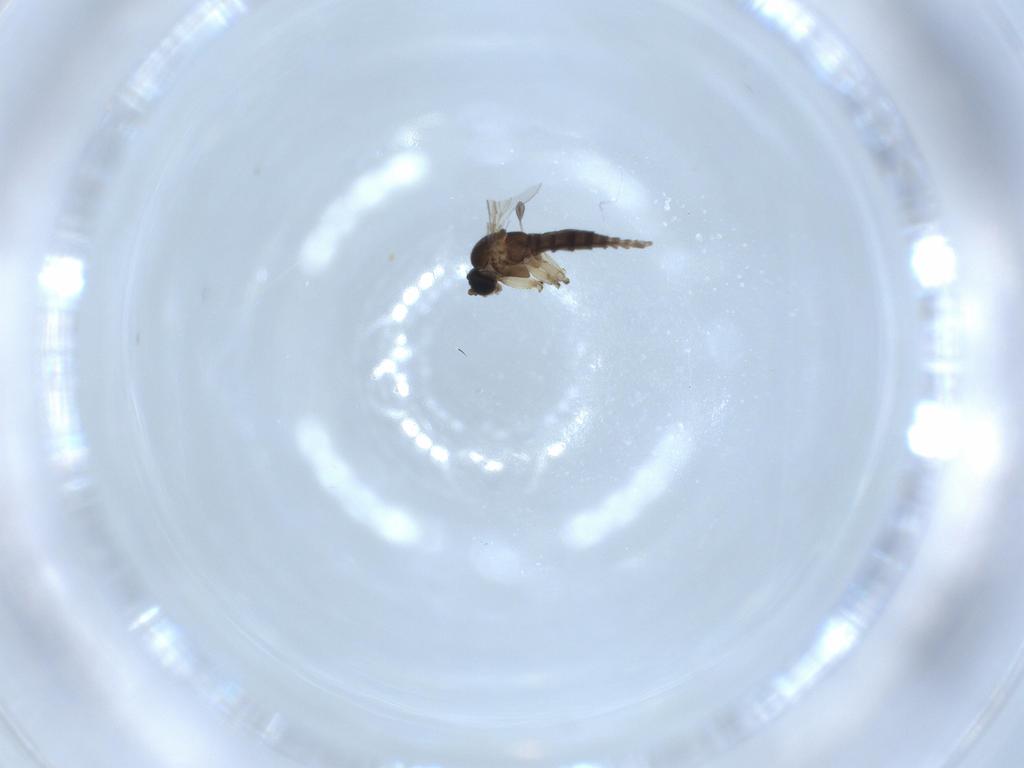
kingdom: Animalia
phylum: Arthropoda
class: Insecta
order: Diptera
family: Sciaridae
